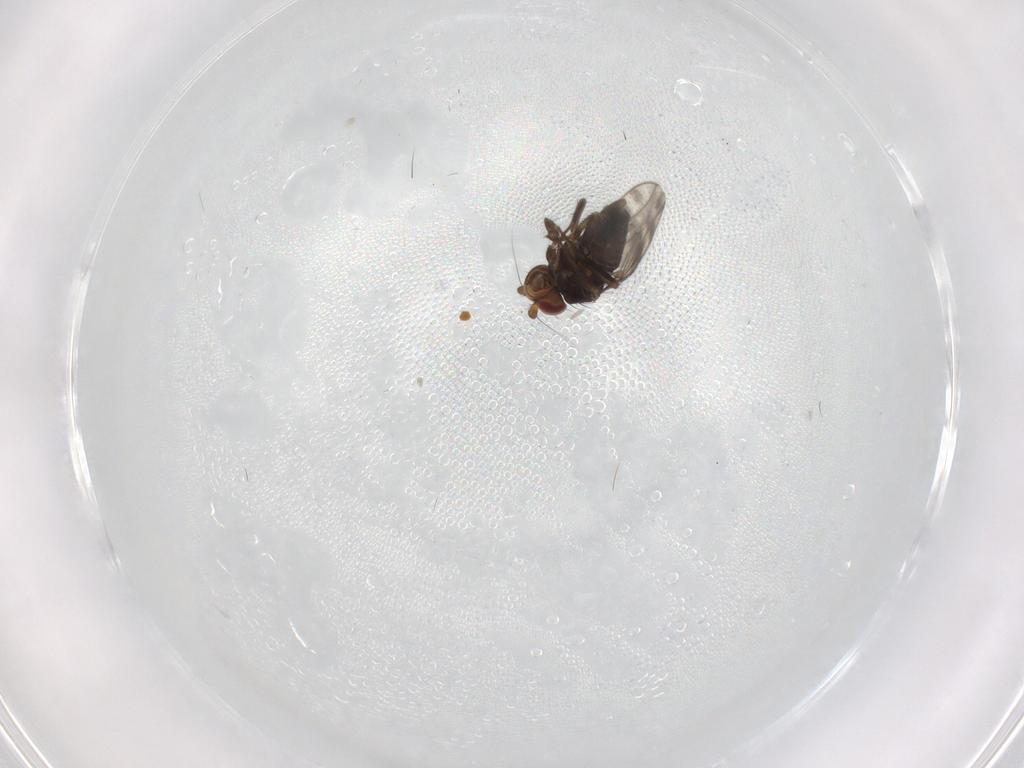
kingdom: Animalia
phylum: Arthropoda
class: Insecta
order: Diptera
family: Sphaeroceridae
